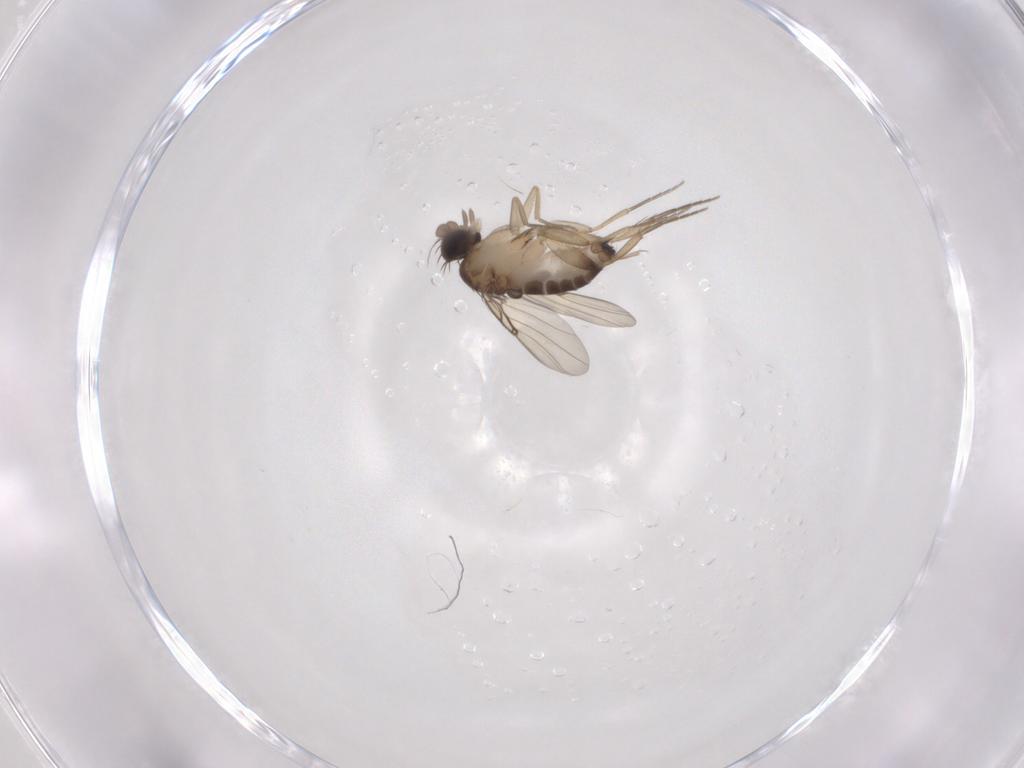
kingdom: Animalia
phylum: Arthropoda
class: Insecta
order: Diptera
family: Phoridae
